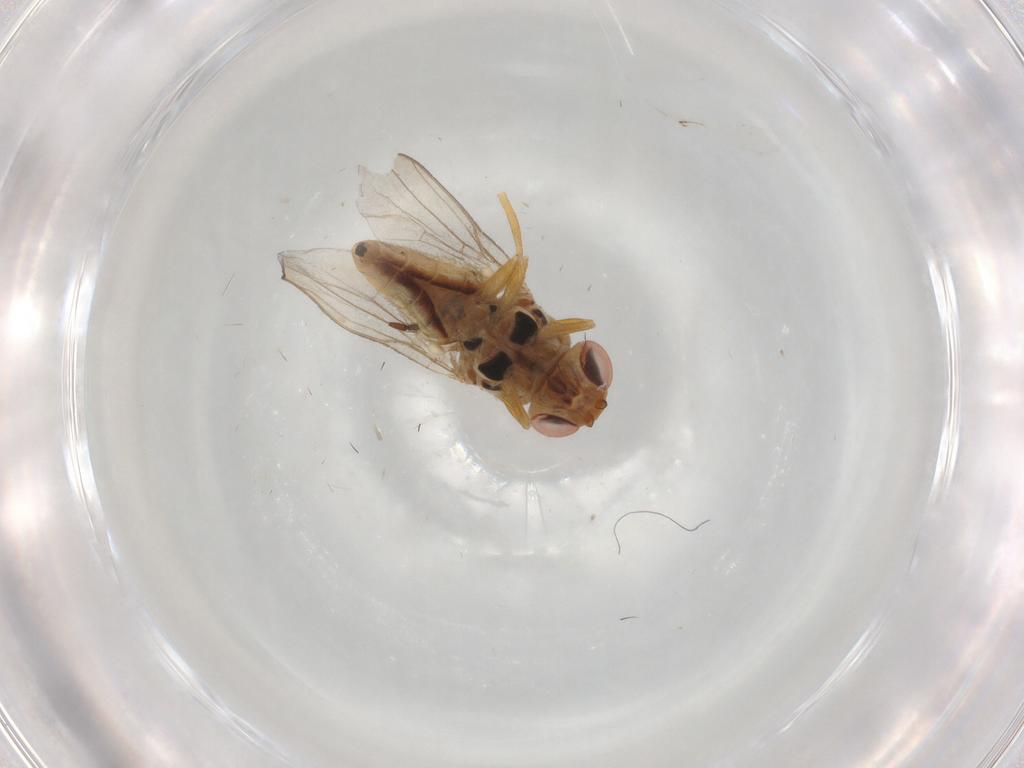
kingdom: Animalia
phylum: Arthropoda
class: Insecta
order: Diptera
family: Chloropidae
